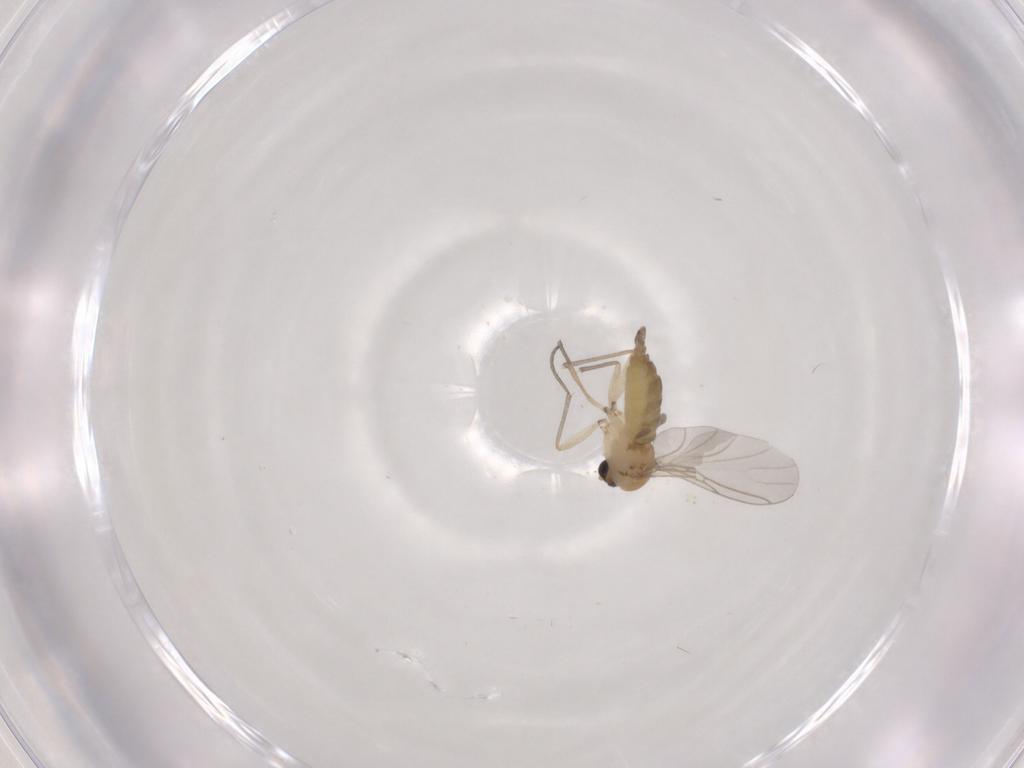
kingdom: Animalia
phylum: Arthropoda
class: Insecta
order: Diptera
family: Sciaridae
